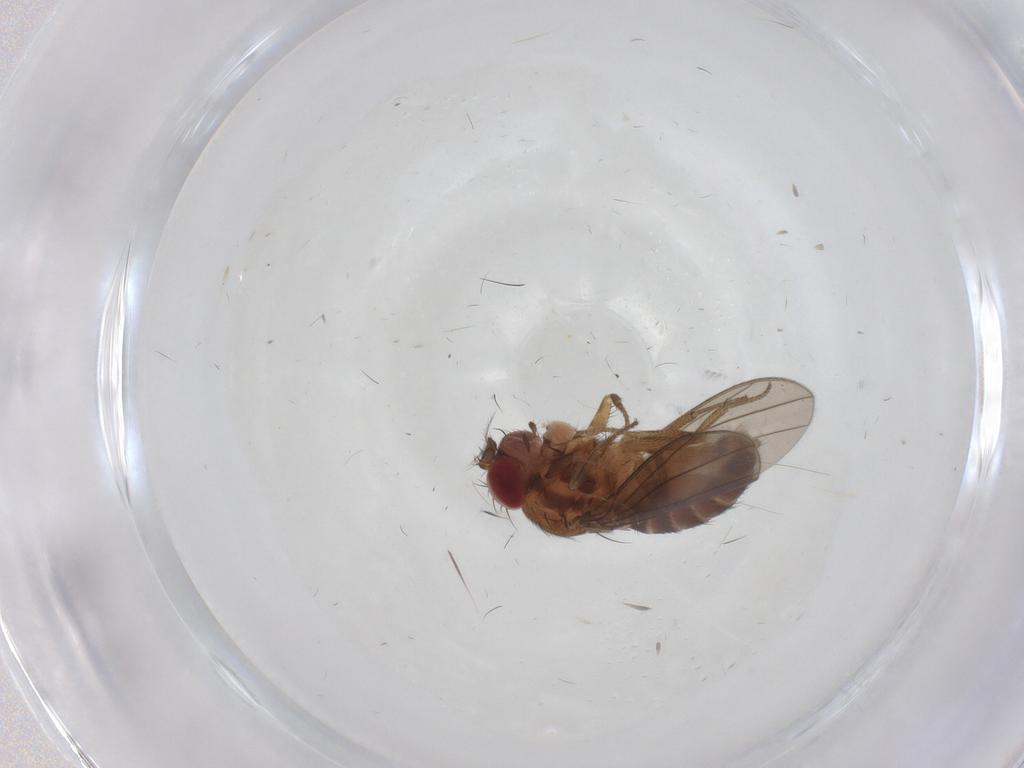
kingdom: Animalia
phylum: Arthropoda
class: Insecta
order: Diptera
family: Drosophilidae
